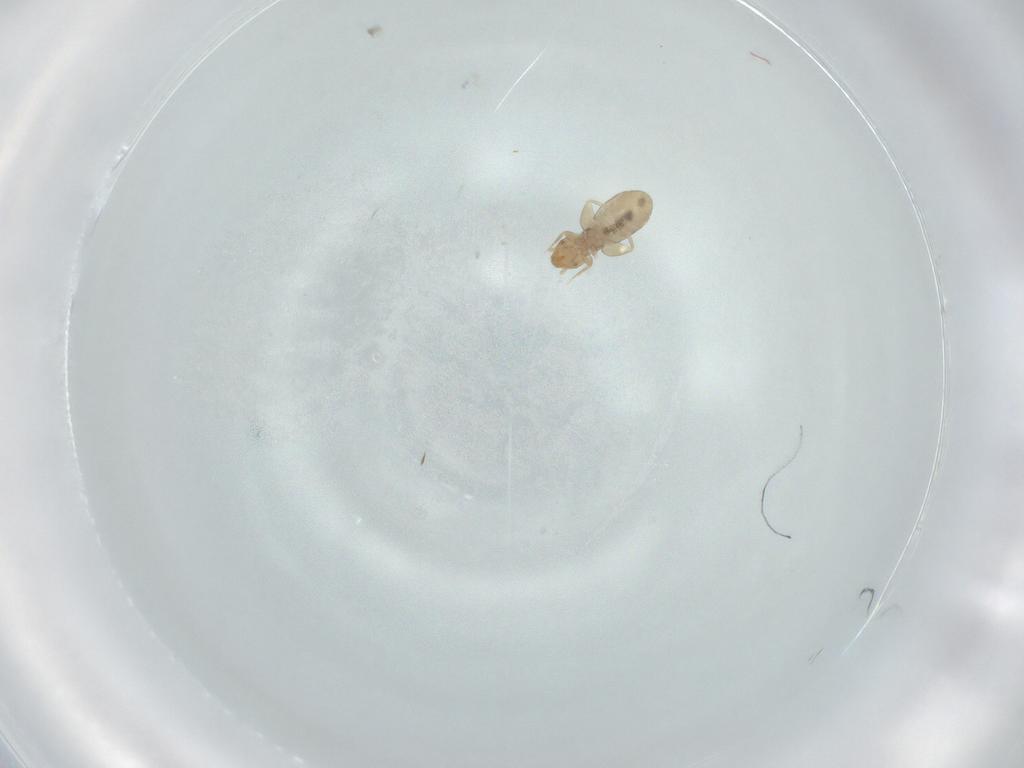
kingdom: Animalia
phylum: Arthropoda
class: Insecta
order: Psocodea
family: Liposcelididae
